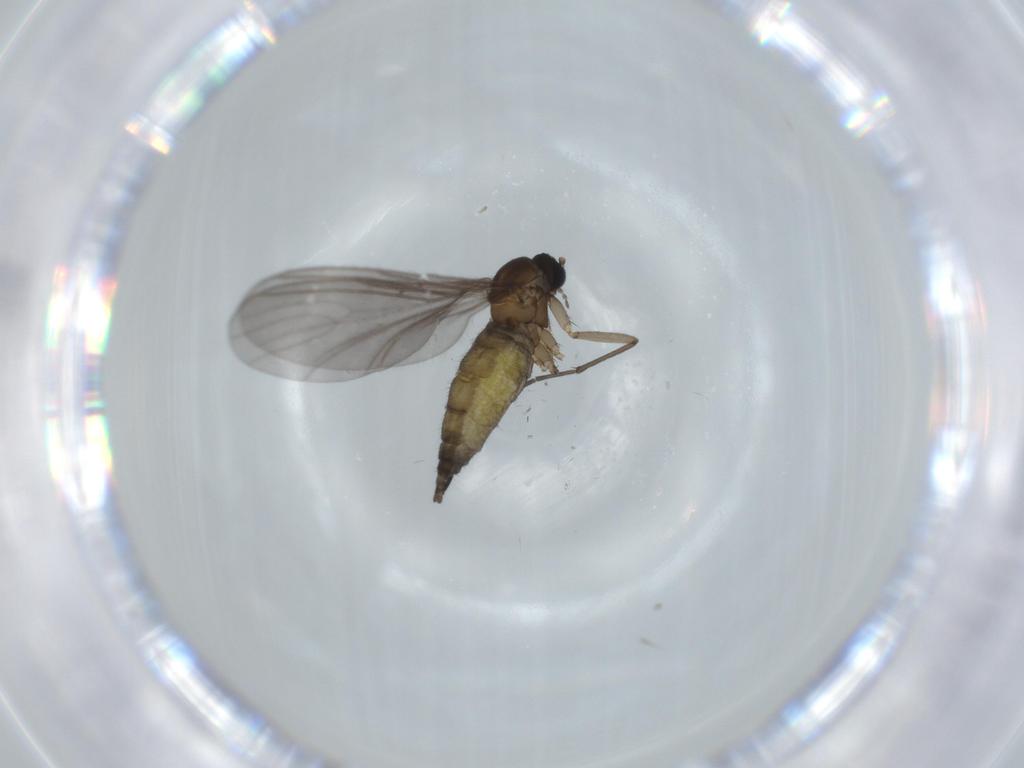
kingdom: Animalia
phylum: Arthropoda
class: Insecta
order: Diptera
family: Sciaridae
